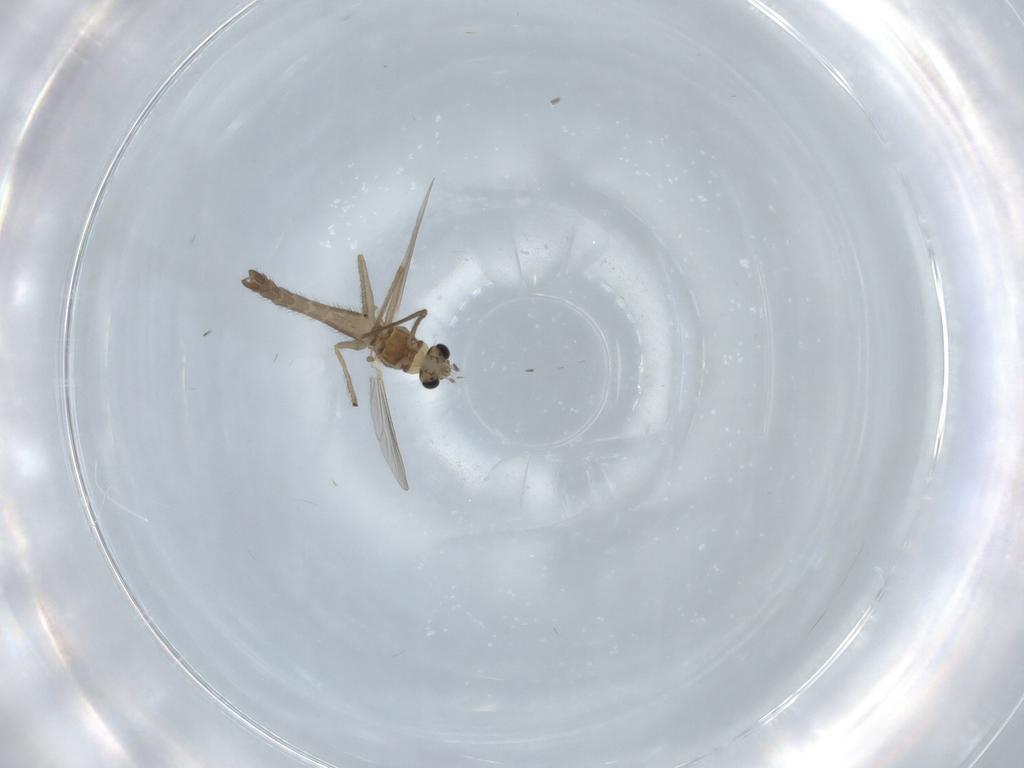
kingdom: Animalia
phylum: Arthropoda
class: Insecta
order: Diptera
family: Chironomidae
